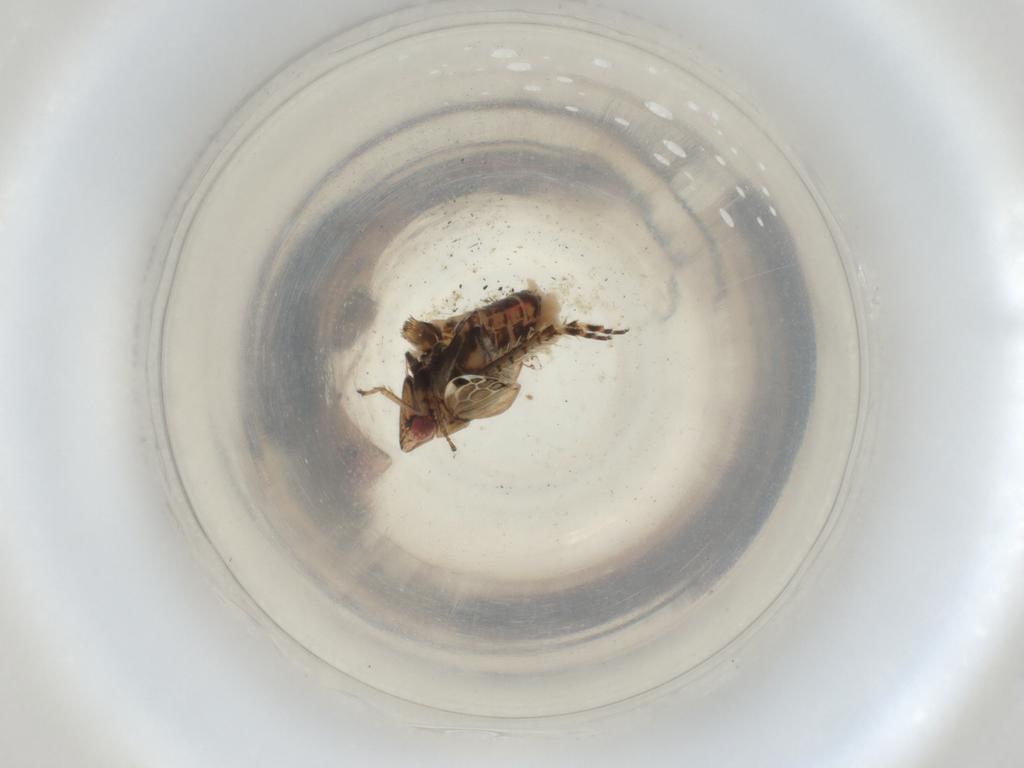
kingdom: Animalia
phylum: Arthropoda
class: Insecta
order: Hemiptera
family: Cicadellidae
